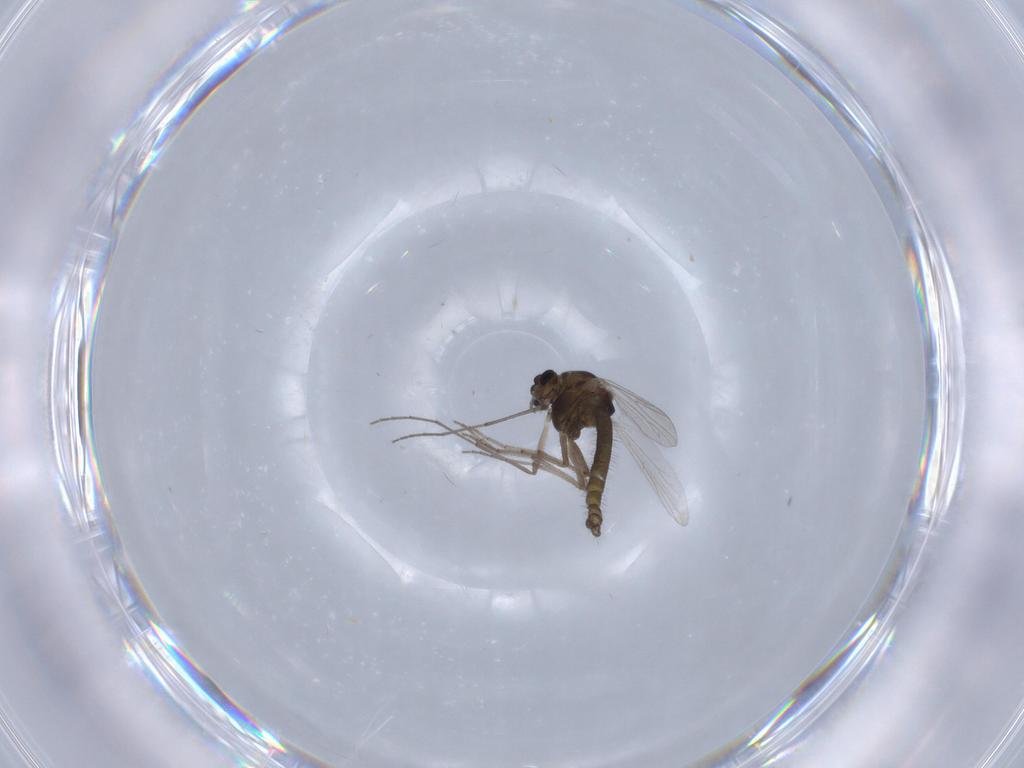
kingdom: Animalia
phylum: Arthropoda
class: Insecta
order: Diptera
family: Chironomidae
